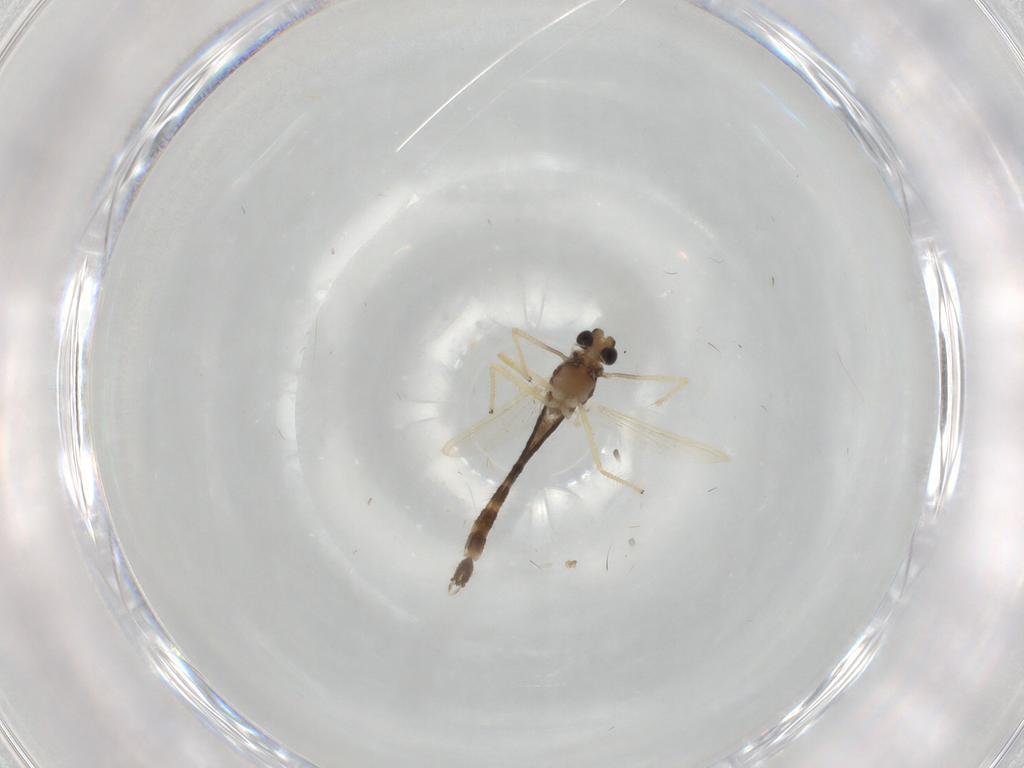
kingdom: Animalia
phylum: Arthropoda
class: Insecta
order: Diptera
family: Chironomidae
